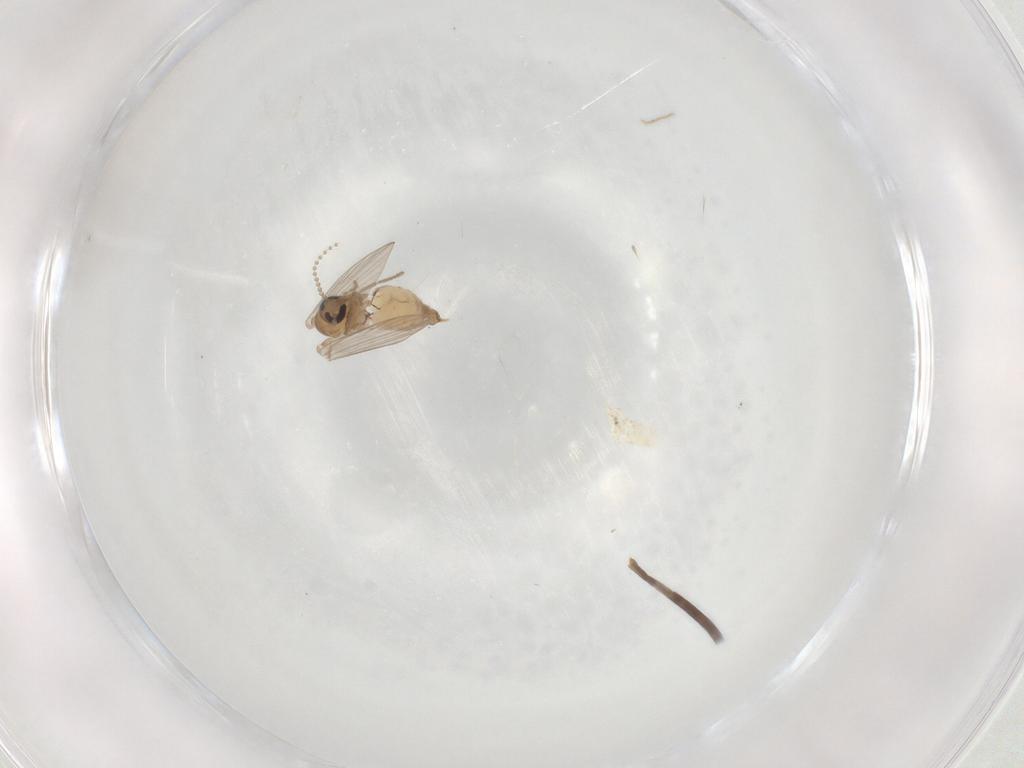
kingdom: Animalia
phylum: Arthropoda
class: Insecta
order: Diptera
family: Psychodidae
